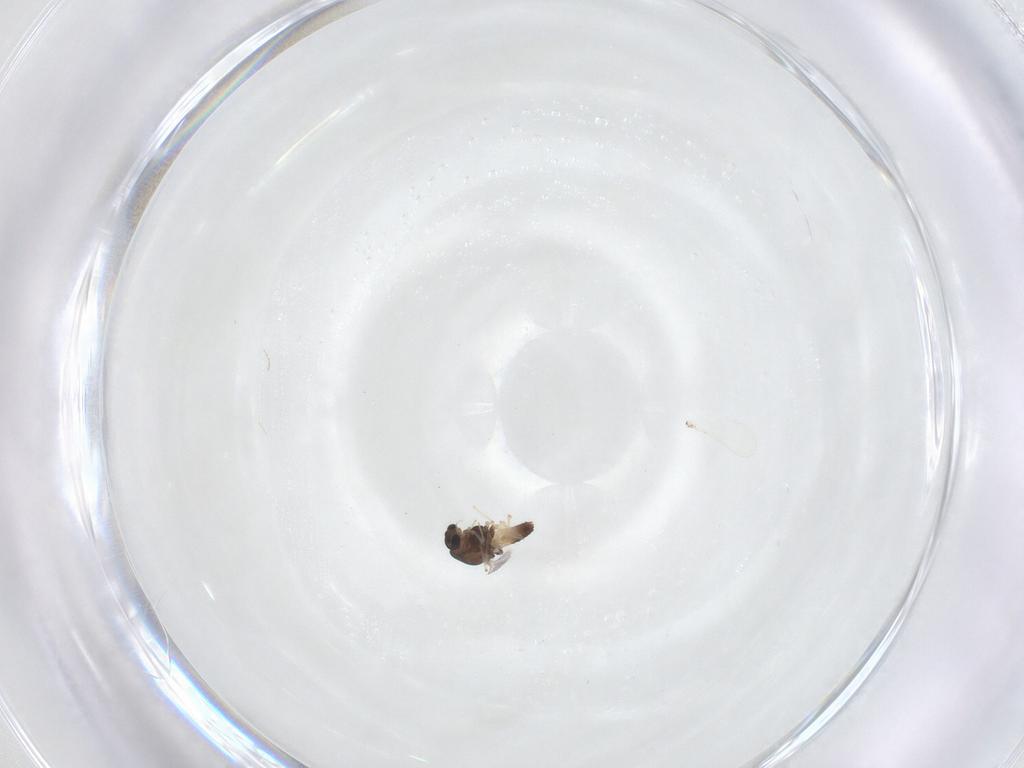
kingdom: Animalia
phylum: Arthropoda
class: Insecta
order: Diptera
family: Chironomidae
